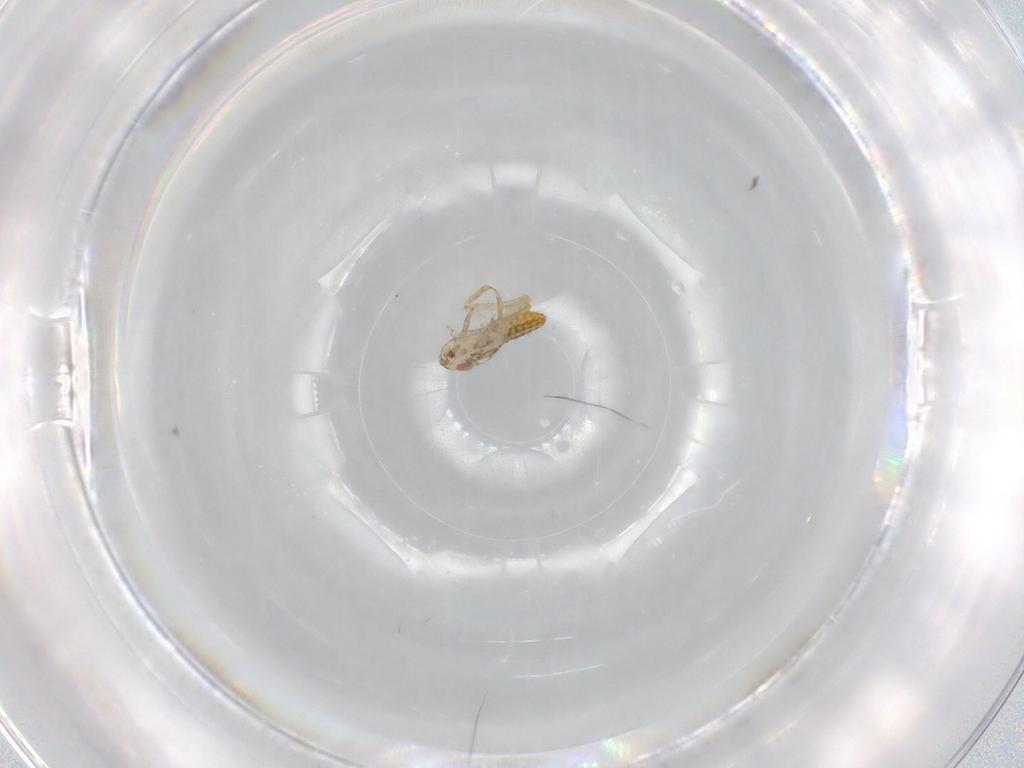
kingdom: Animalia
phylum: Arthropoda
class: Insecta
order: Hemiptera
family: Delphacidae
